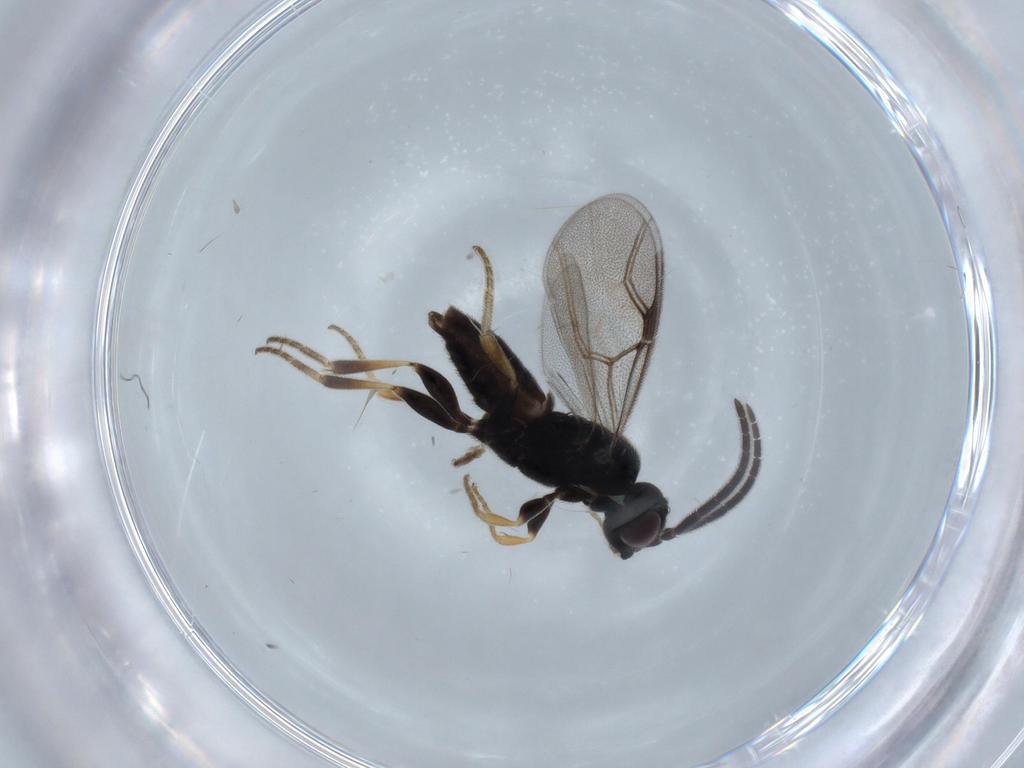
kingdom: Animalia
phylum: Arthropoda
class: Insecta
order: Hymenoptera
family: Dryinidae
